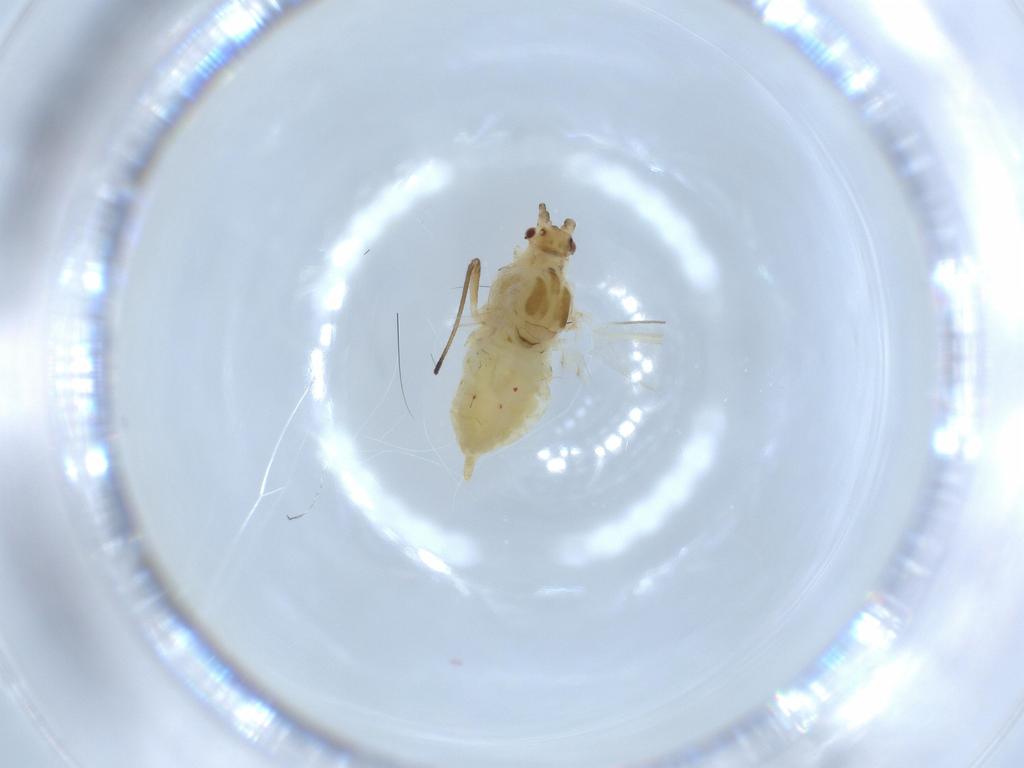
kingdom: Animalia
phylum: Arthropoda
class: Insecta
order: Hemiptera
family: Aphididae
